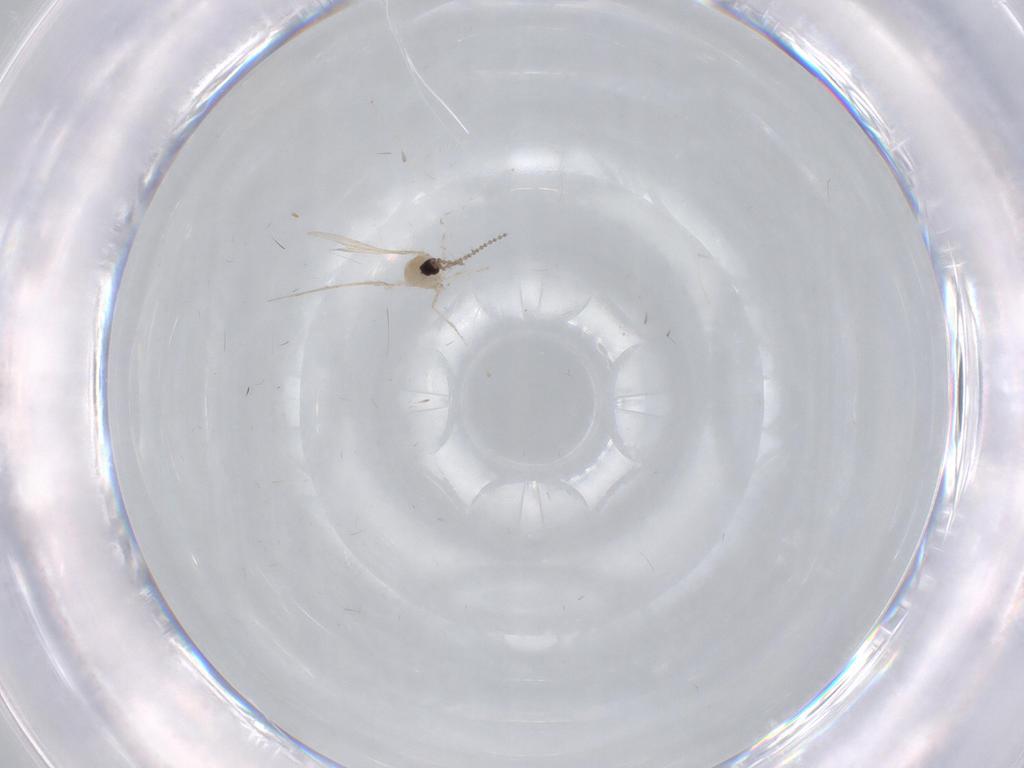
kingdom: Animalia
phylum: Arthropoda
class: Insecta
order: Diptera
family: Cecidomyiidae
